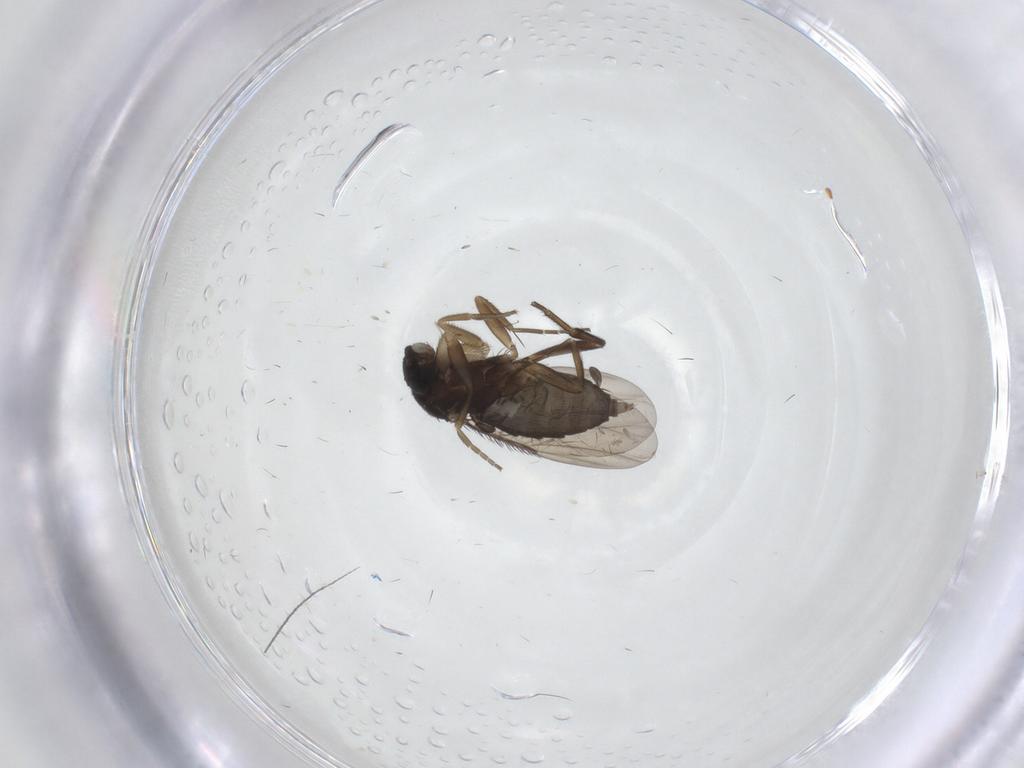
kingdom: Animalia
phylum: Arthropoda
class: Insecta
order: Diptera
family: Phoridae
